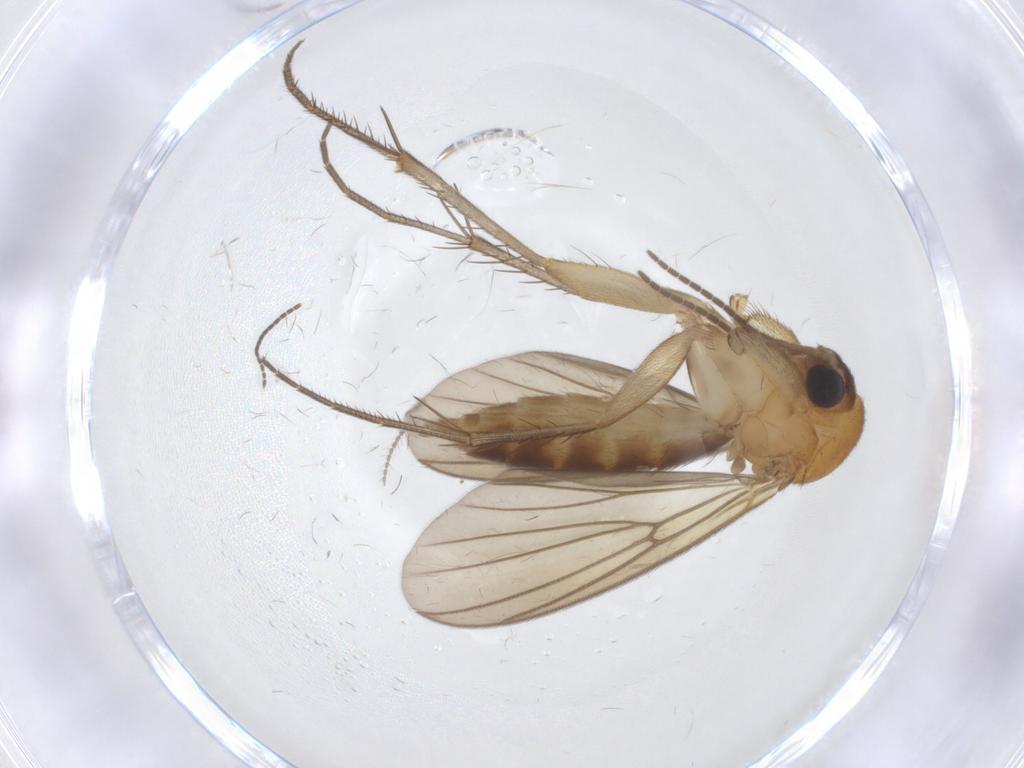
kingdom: Animalia
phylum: Arthropoda
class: Insecta
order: Diptera
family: Mycetophilidae
